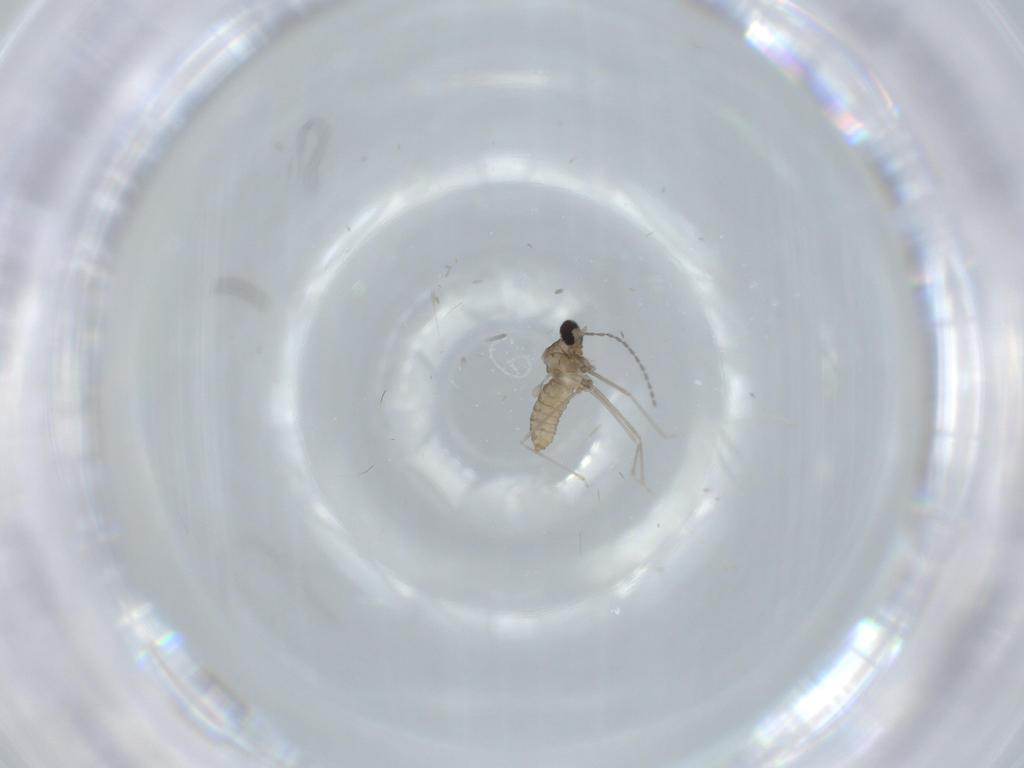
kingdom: Animalia
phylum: Arthropoda
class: Insecta
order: Diptera
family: Cecidomyiidae
